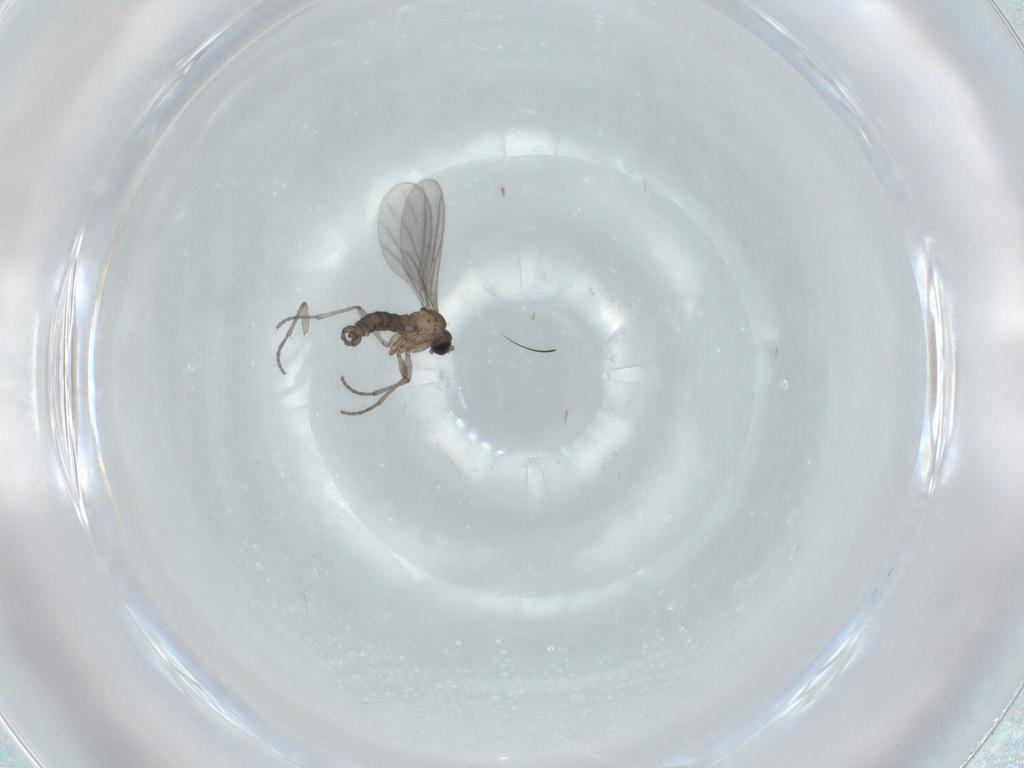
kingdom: Animalia
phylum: Arthropoda
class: Insecta
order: Diptera
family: Sciaridae
